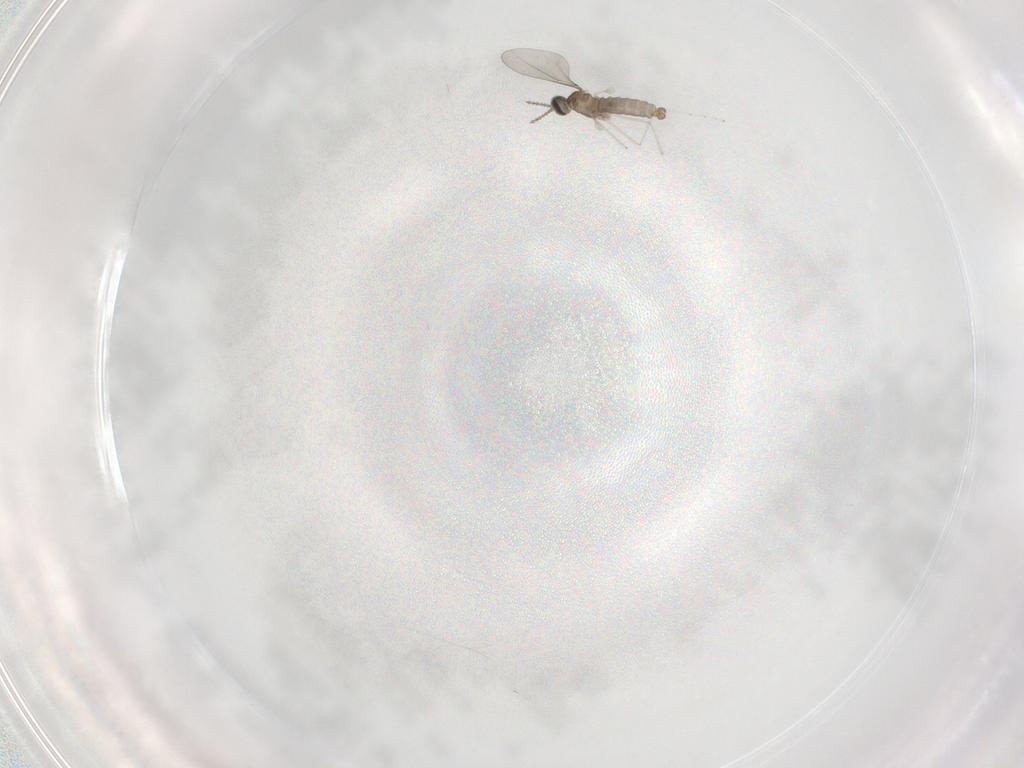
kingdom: Animalia
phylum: Arthropoda
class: Insecta
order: Diptera
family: Cecidomyiidae
